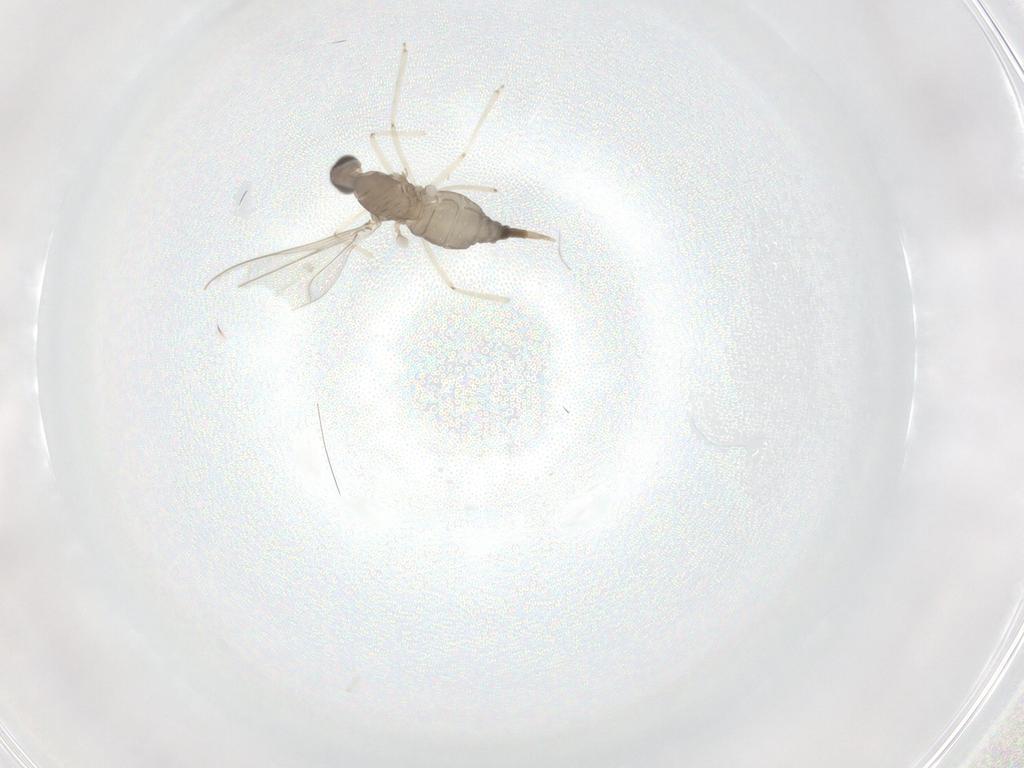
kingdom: Animalia
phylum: Arthropoda
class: Insecta
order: Diptera
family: Cecidomyiidae
